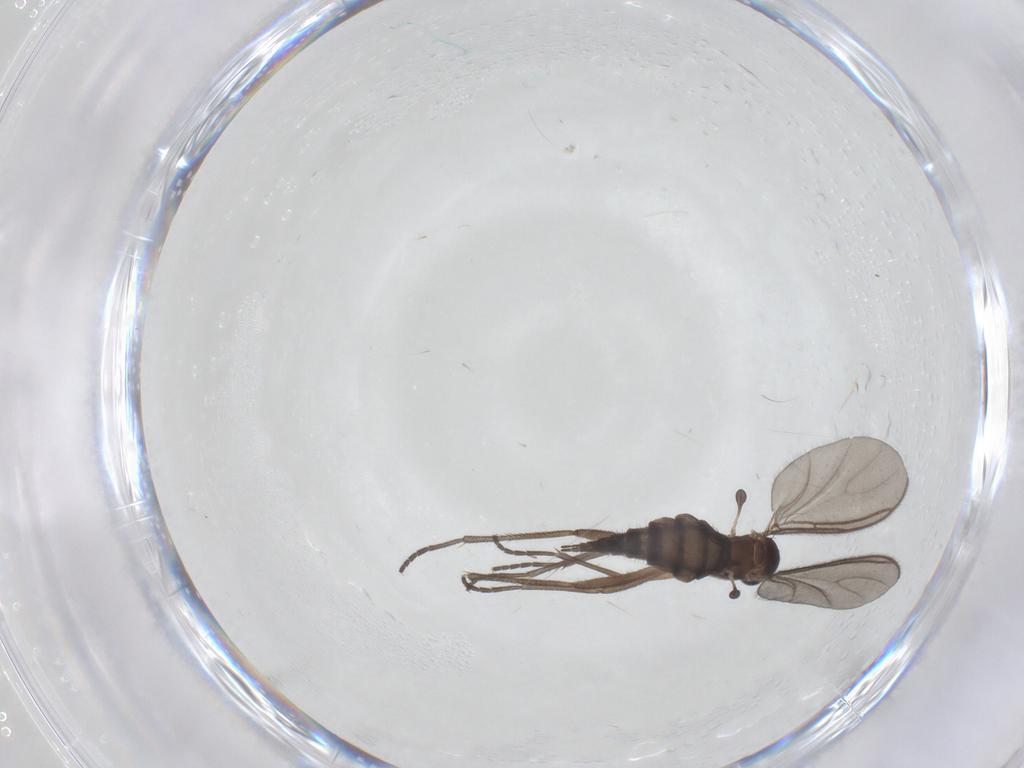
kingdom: Animalia
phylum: Arthropoda
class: Insecta
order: Diptera
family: Sciaridae
